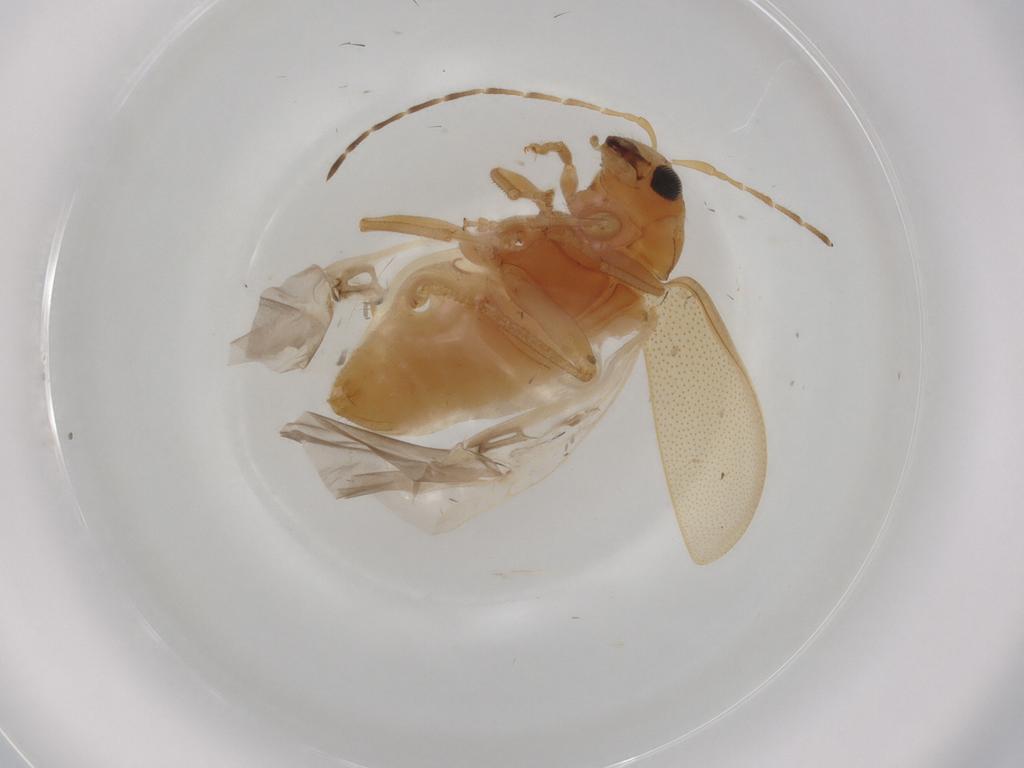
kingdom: Animalia
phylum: Arthropoda
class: Insecta
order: Coleoptera
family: Chrysomelidae
